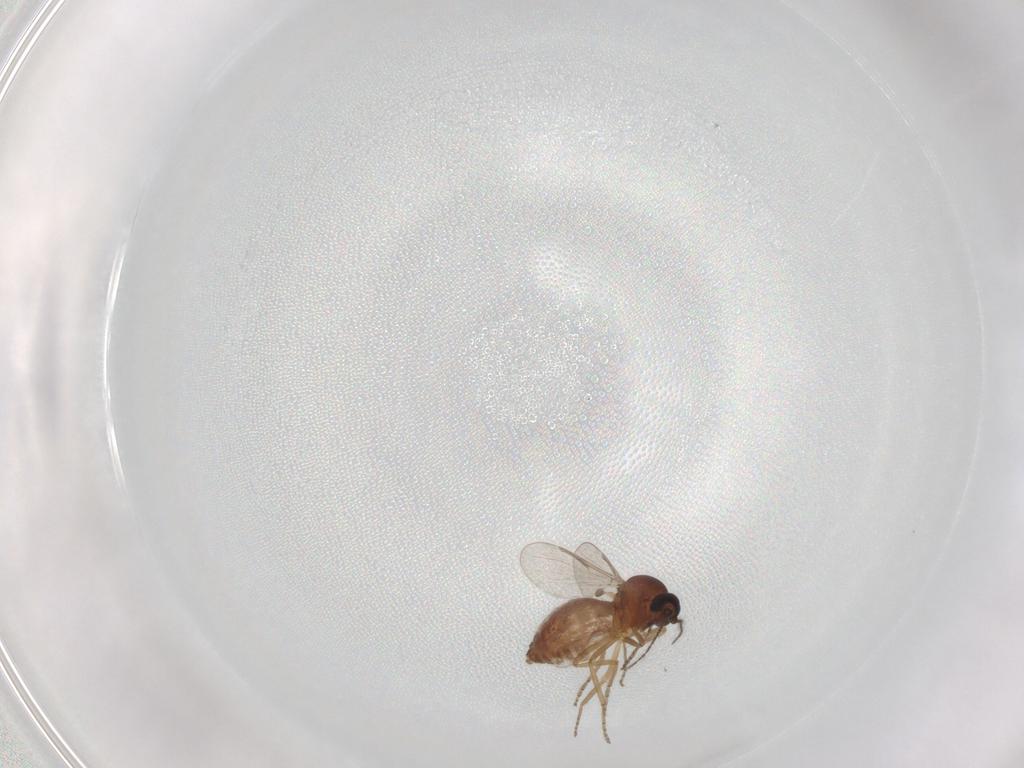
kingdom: Animalia
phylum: Arthropoda
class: Insecta
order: Diptera
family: Ceratopogonidae
